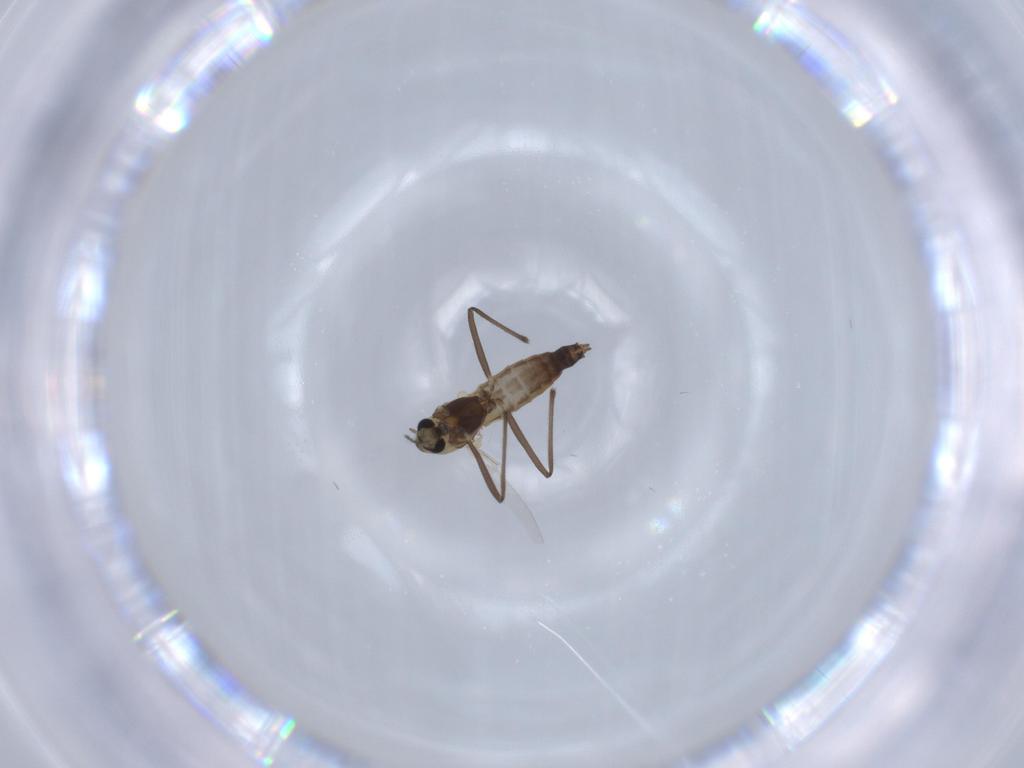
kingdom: Animalia
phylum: Arthropoda
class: Insecta
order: Diptera
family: Chironomidae
